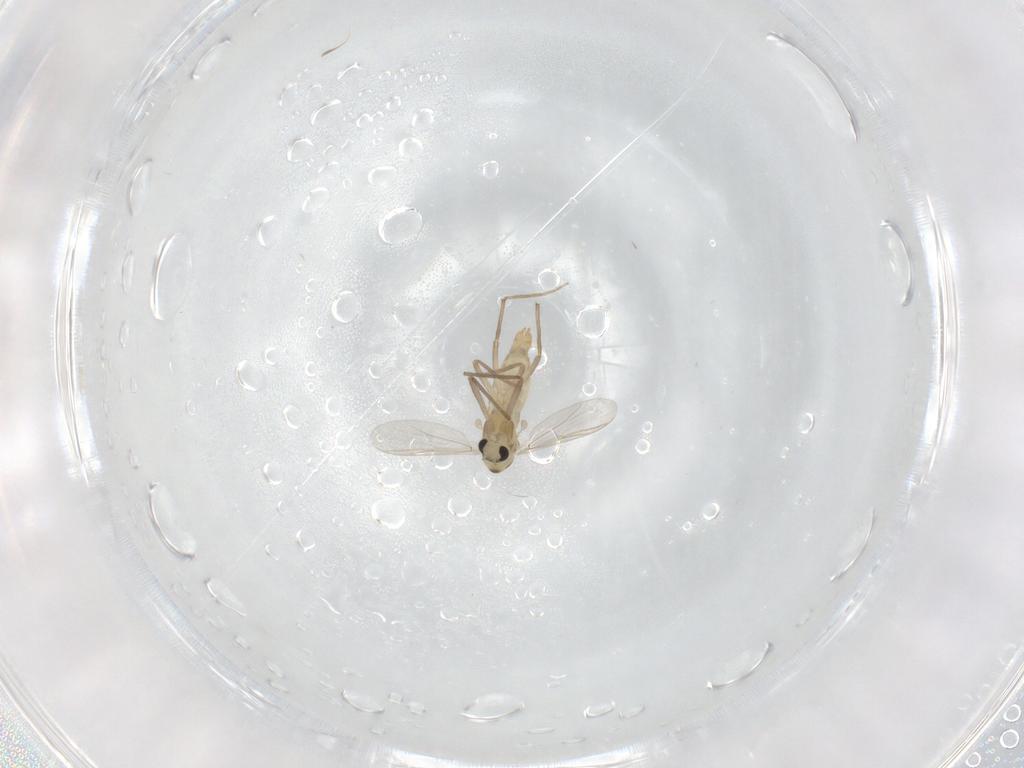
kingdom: Animalia
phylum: Arthropoda
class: Insecta
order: Diptera
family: Chironomidae
